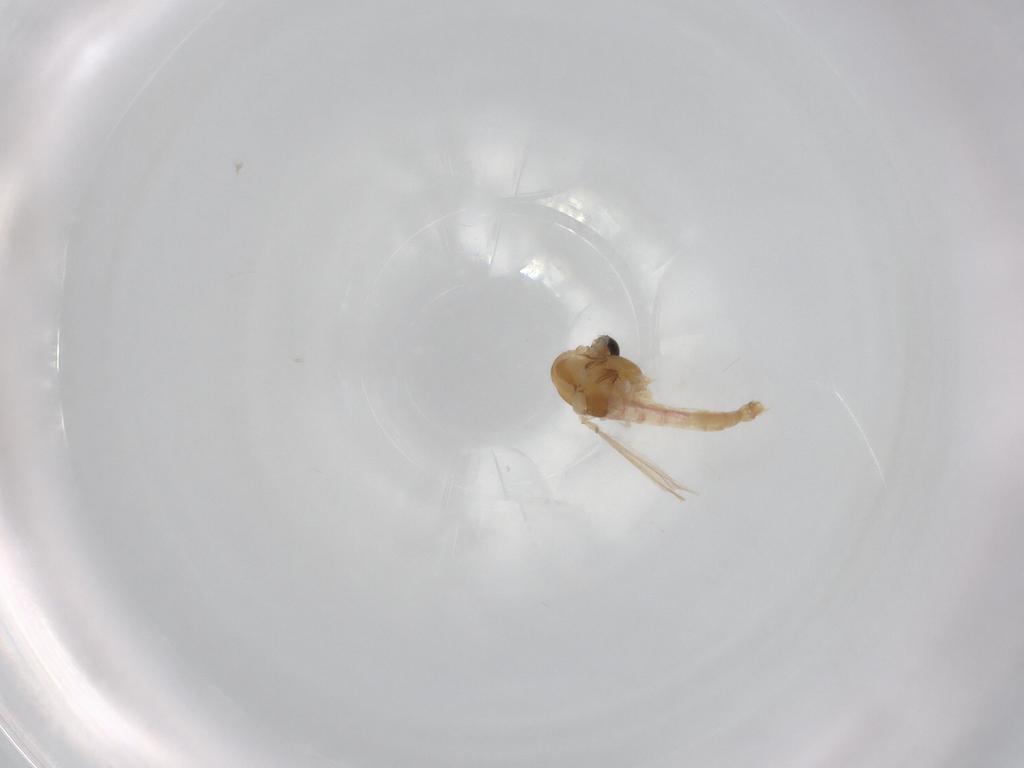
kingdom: Animalia
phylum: Arthropoda
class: Insecta
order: Diptera
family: Chironomidae
